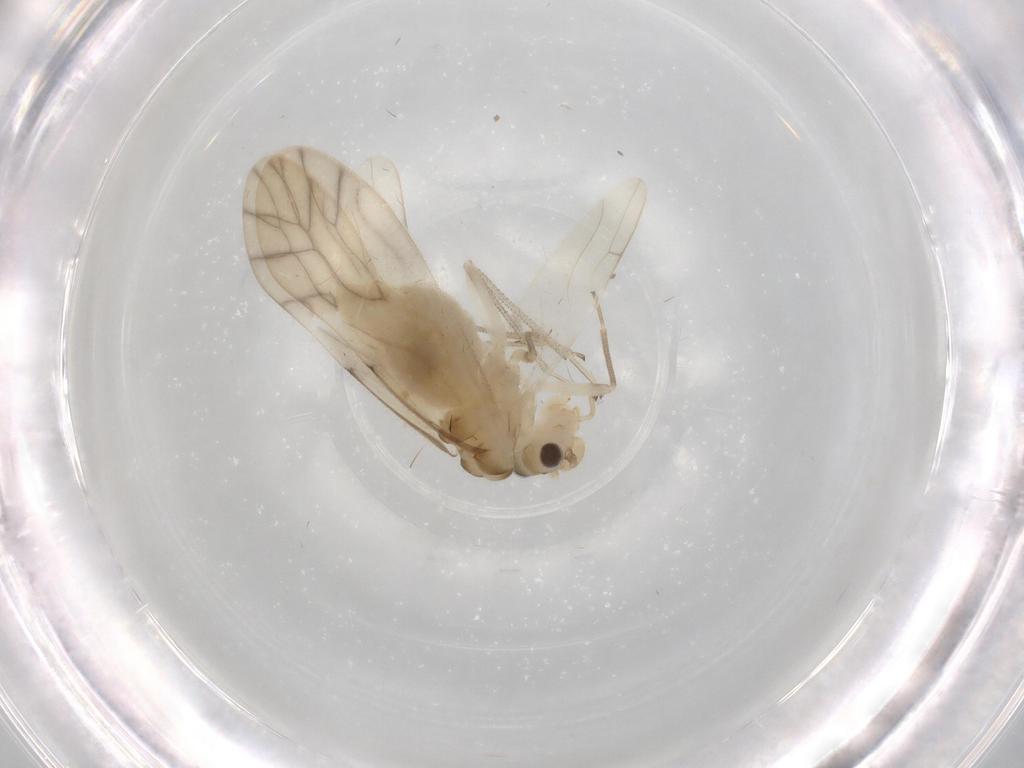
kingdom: Animalia
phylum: Arthropoda
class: Insecta
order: Psocodea
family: Caeciliusidae
